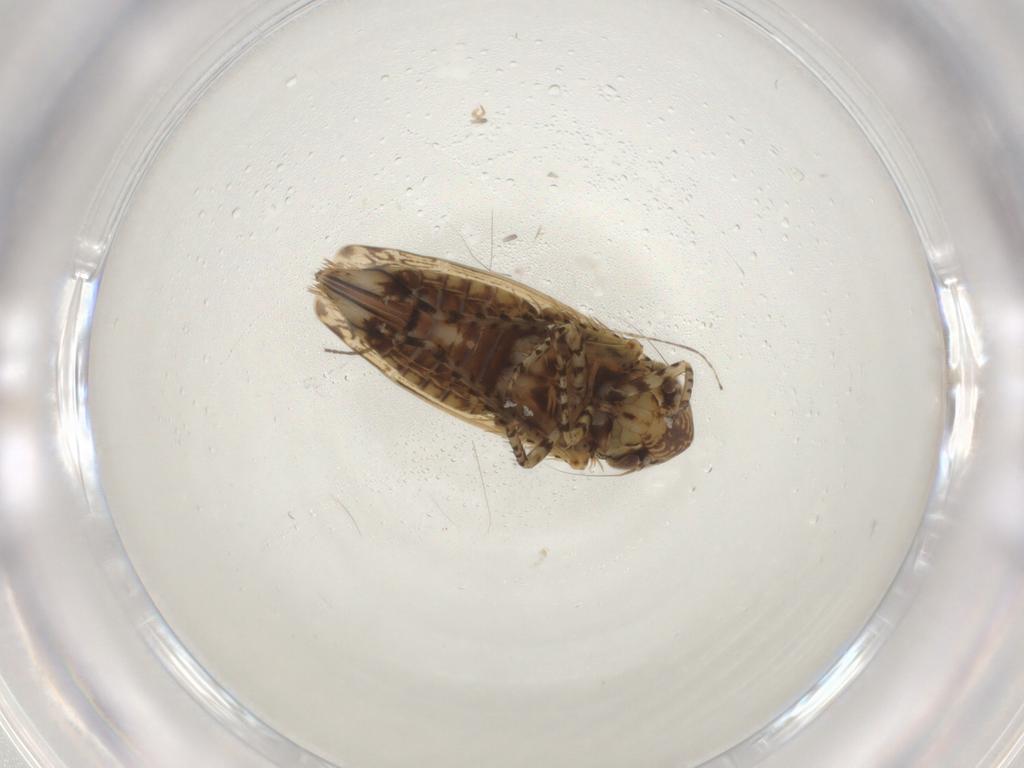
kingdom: Animalia
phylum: Arthropoda
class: Insecta
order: Hemiptera
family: Cicadellidae
